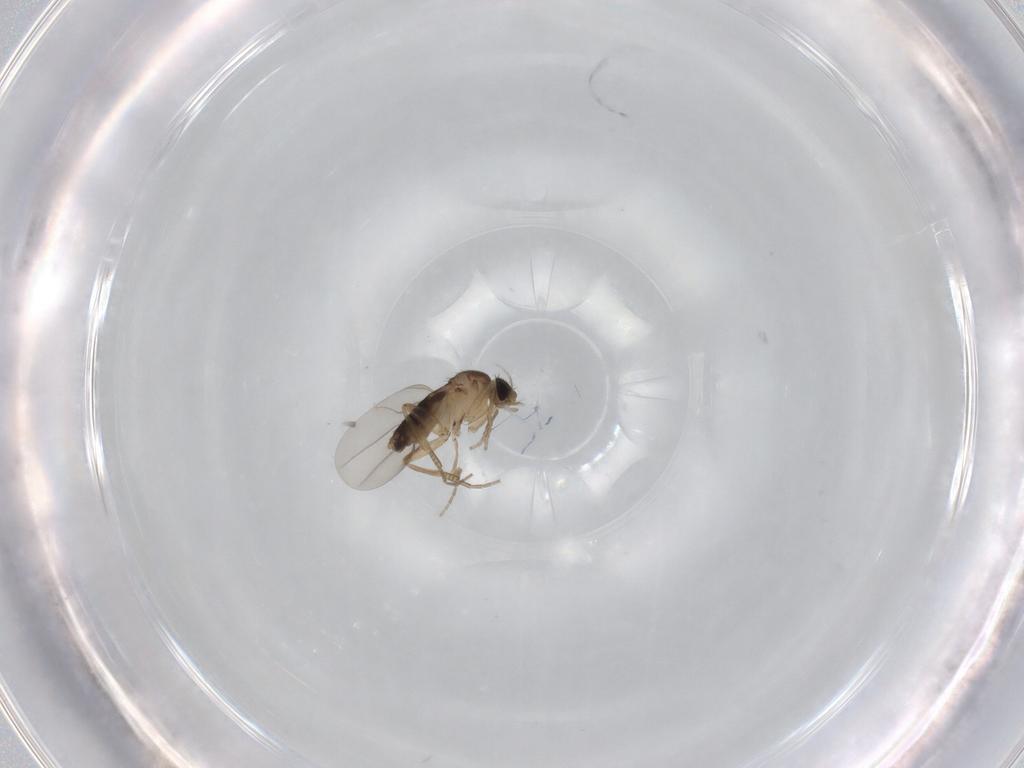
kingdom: Animalia
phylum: Arthropoda
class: Insecta
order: Diptera
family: Phoridae
